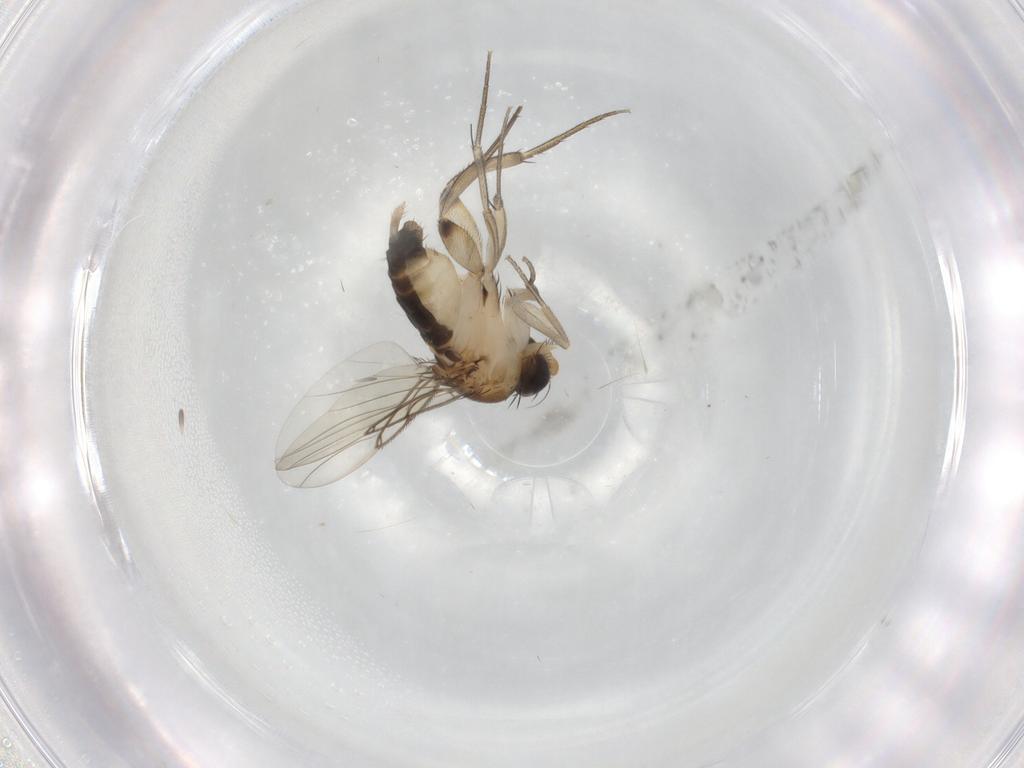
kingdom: Animalia
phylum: Arthropoda
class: Insecta
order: Diptera
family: Phoridae
